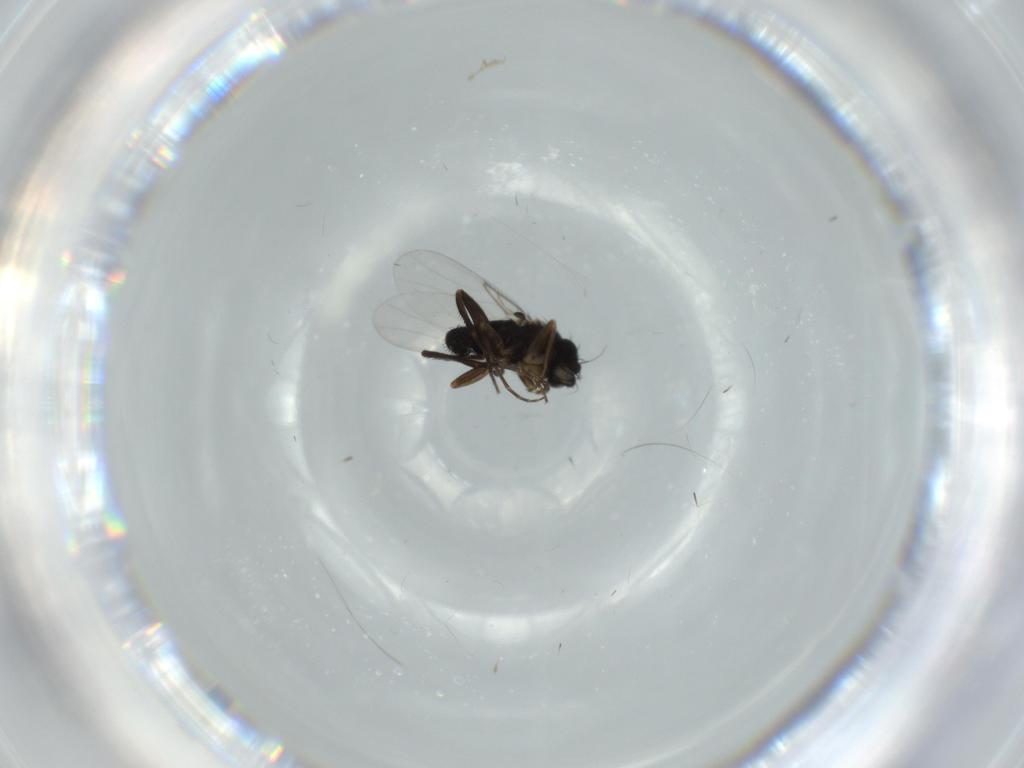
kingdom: Animalia
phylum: Arthropoda
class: Insecta
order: Diptera
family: Phoridae
